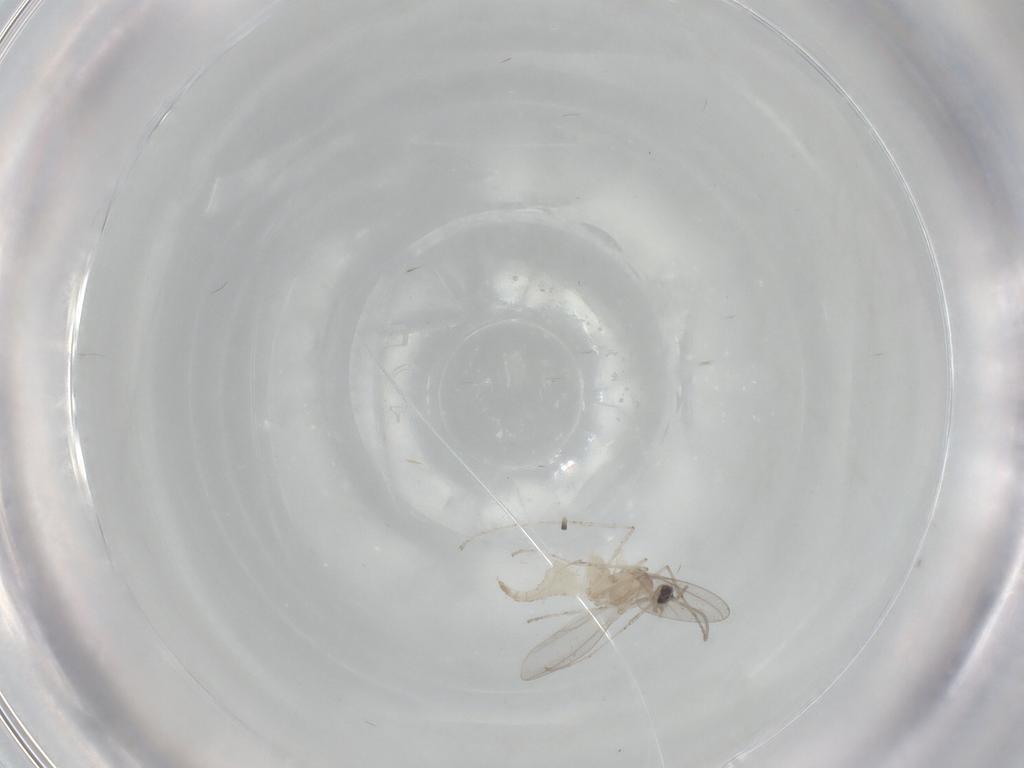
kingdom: Animalia
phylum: Arthropoda
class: Insecta
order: Diptera
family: Cecidomyiidae
